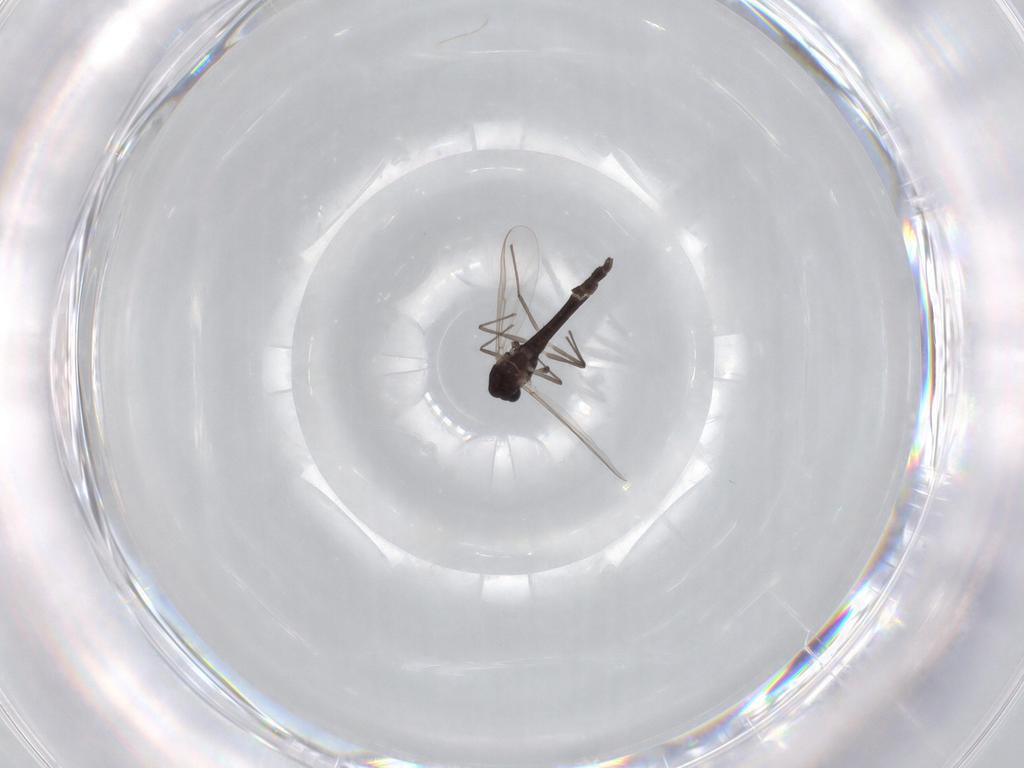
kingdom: Animalia
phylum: Arthropoda
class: Insecta
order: Diptera
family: Chironomidae
